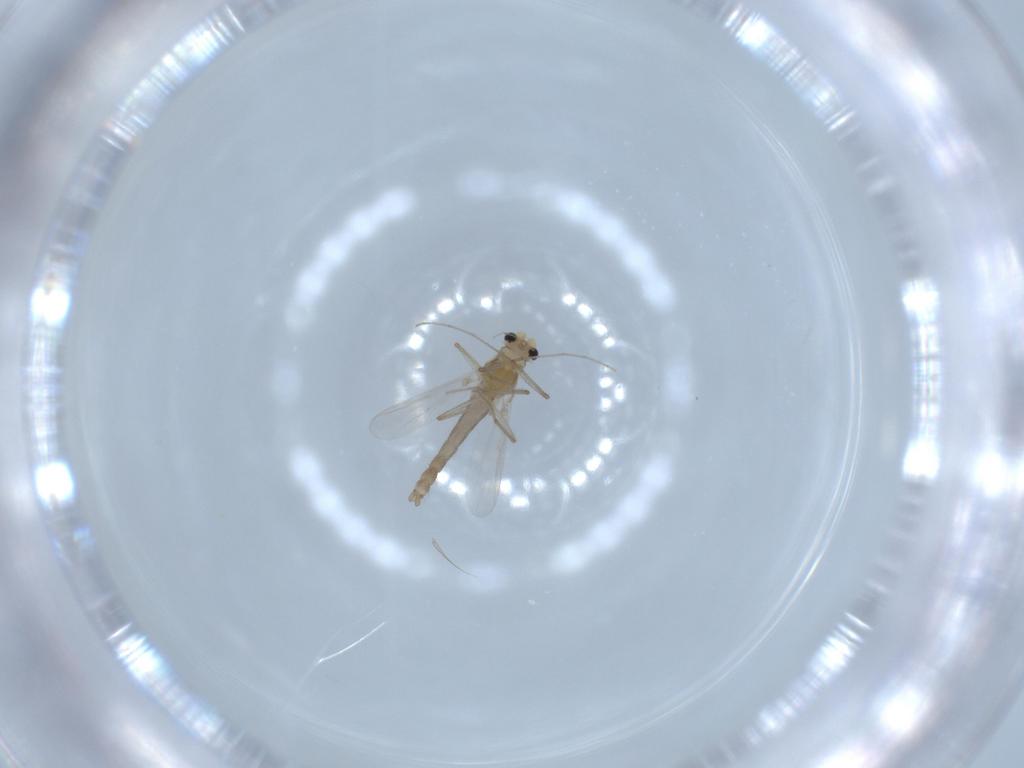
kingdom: Animalia
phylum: Arthropoda
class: Insecta
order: Diptera
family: Chironomidae
